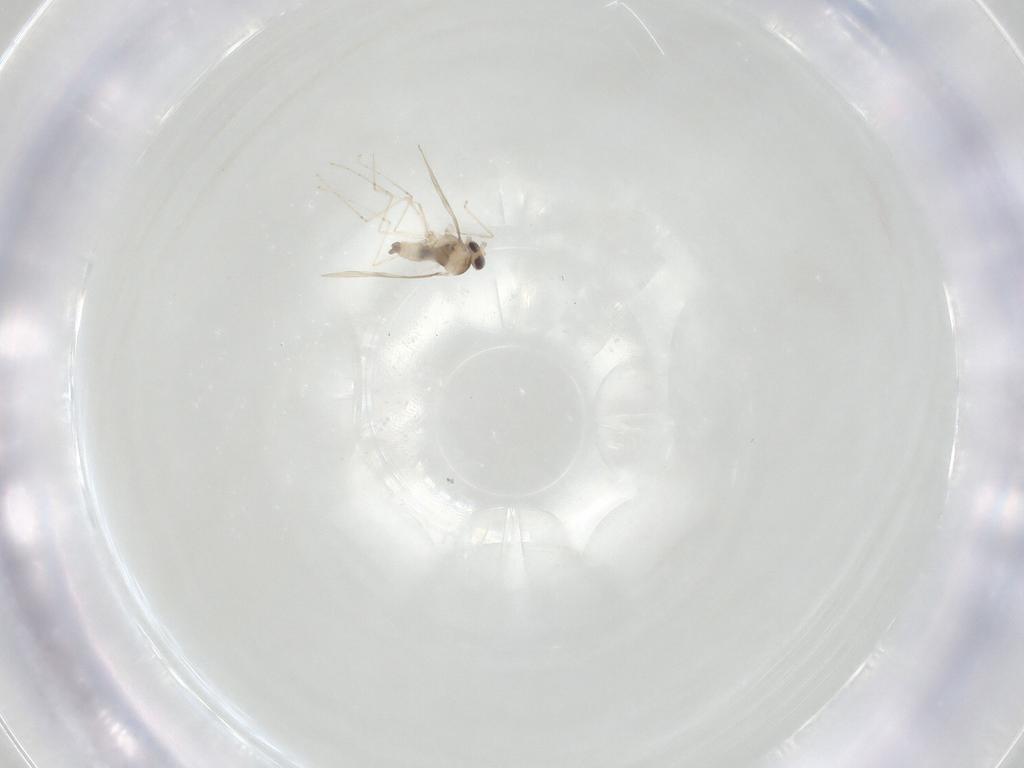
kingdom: Animalia
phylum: Arthropoda
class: Insecta
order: Diptera
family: Cecidomyiidae
